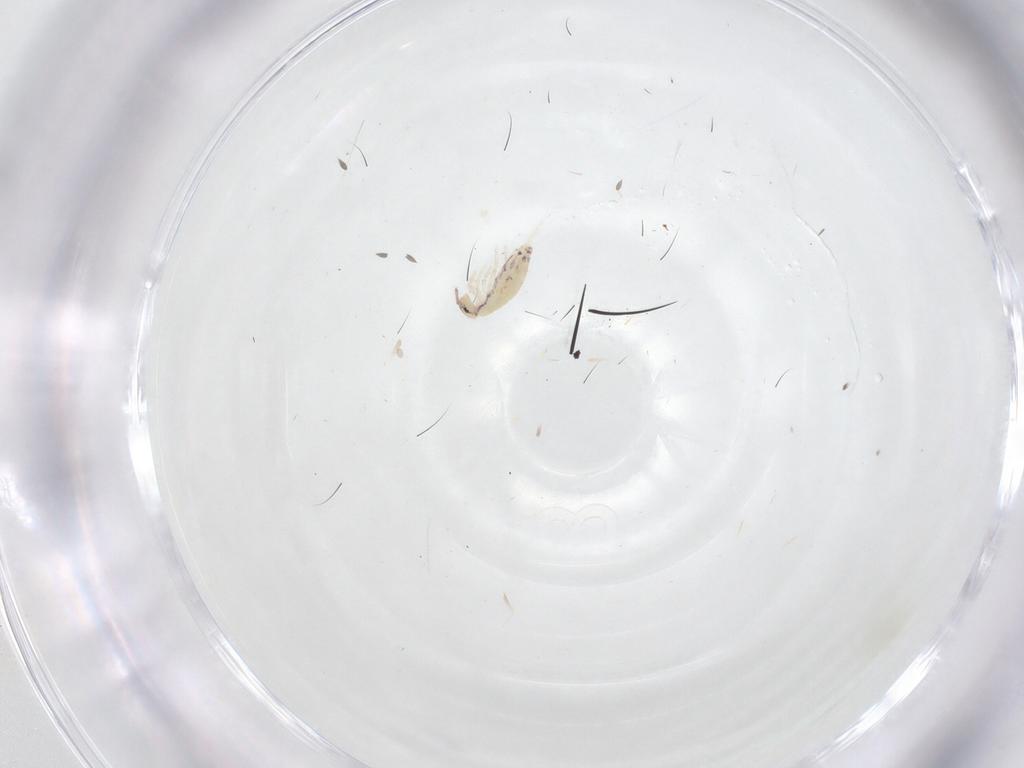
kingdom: Animalia
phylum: Arthropoda
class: Collembola
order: Entomobryomorpha
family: Entomobryidae
